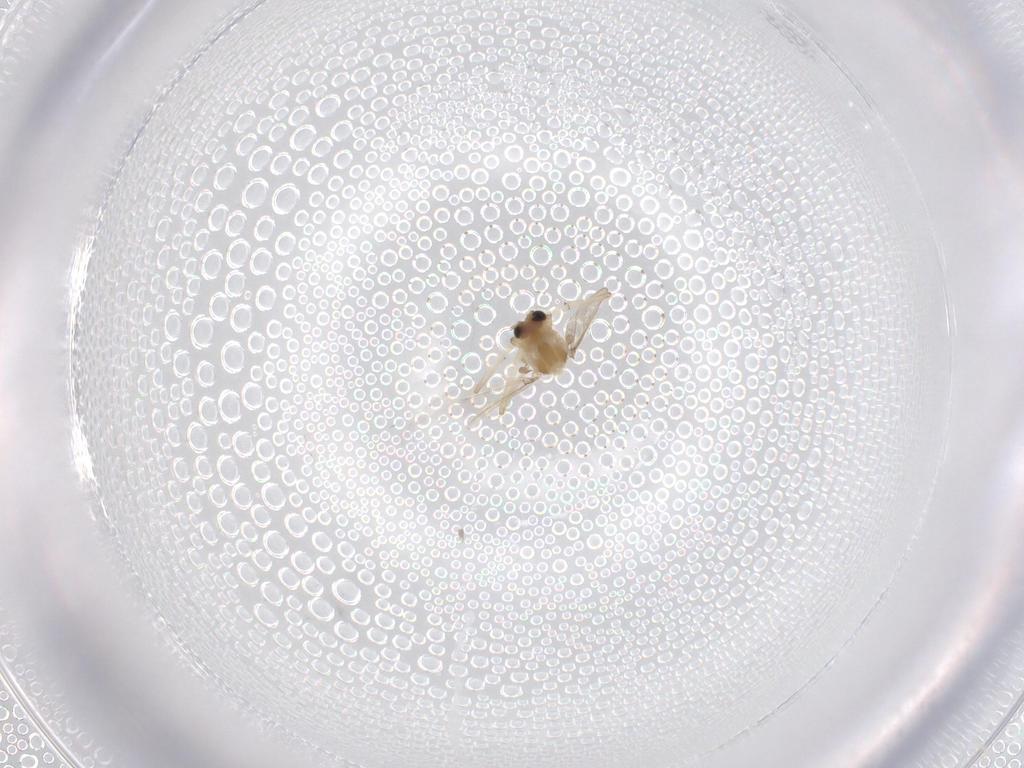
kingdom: Animalia
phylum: Arthropoda
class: Insecta
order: Diptera
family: Chironomidae
